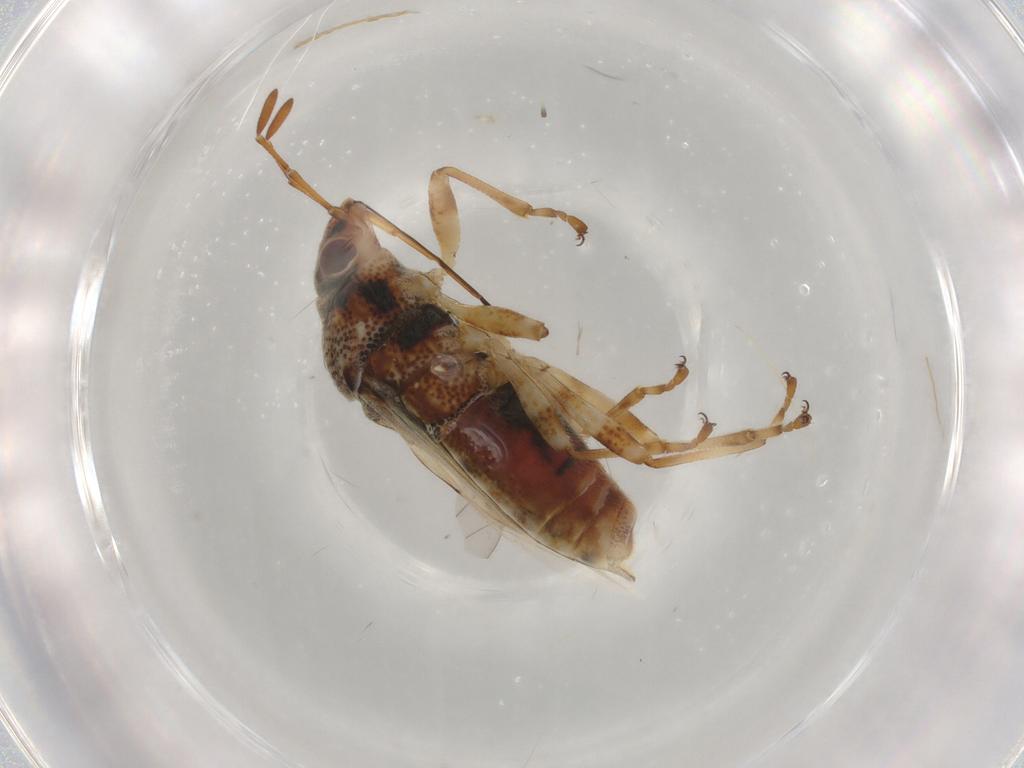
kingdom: Animalia
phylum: Arthropoda
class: Insecta
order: Hemiptera
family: Lygaeidae
